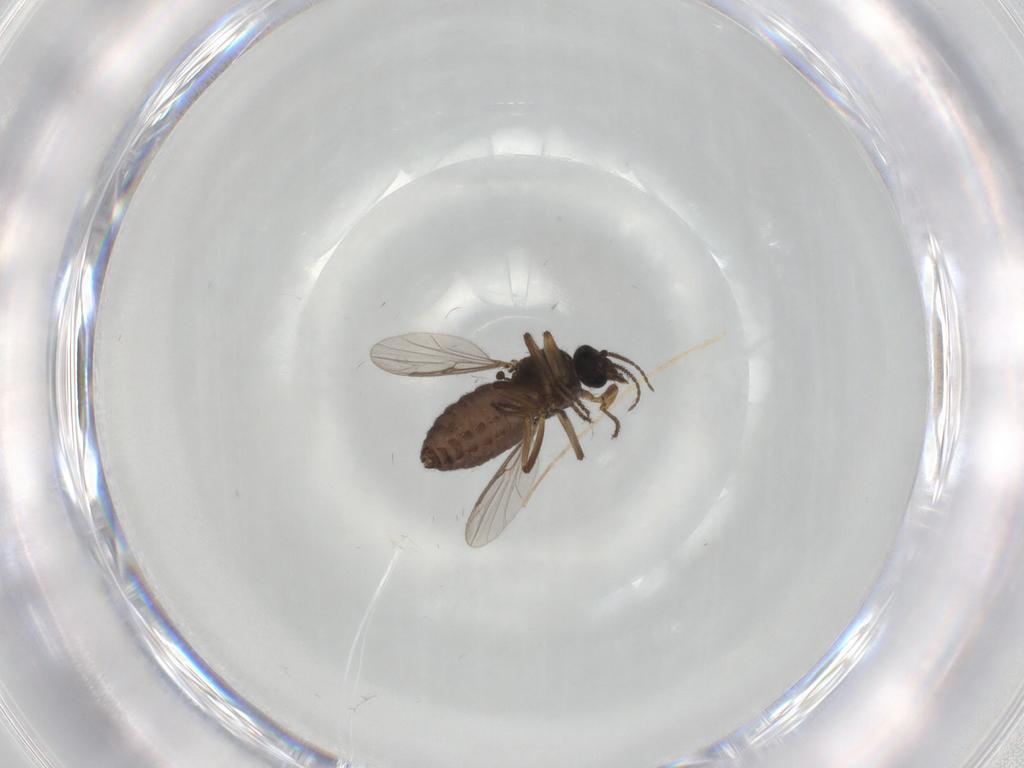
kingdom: Animalia
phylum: Arthropoda
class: Insecta
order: Diptera
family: Ceratopogonidae
